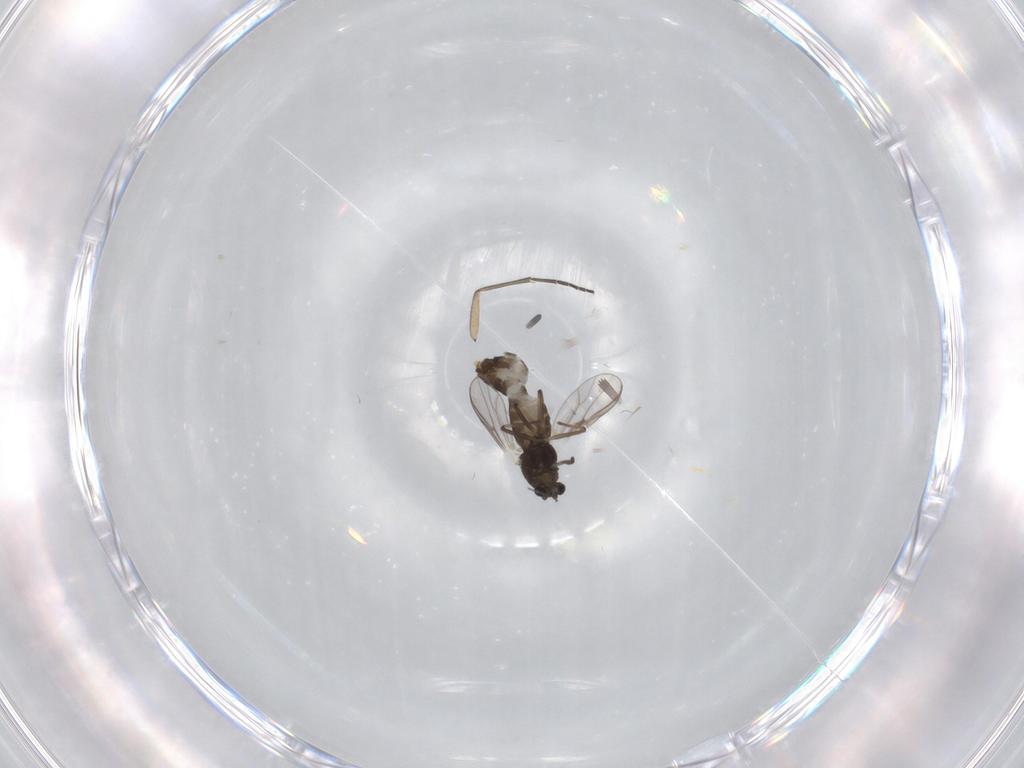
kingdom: Animalia
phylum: Arthropoda
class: Insecta
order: Diptera
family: Chironomidae
